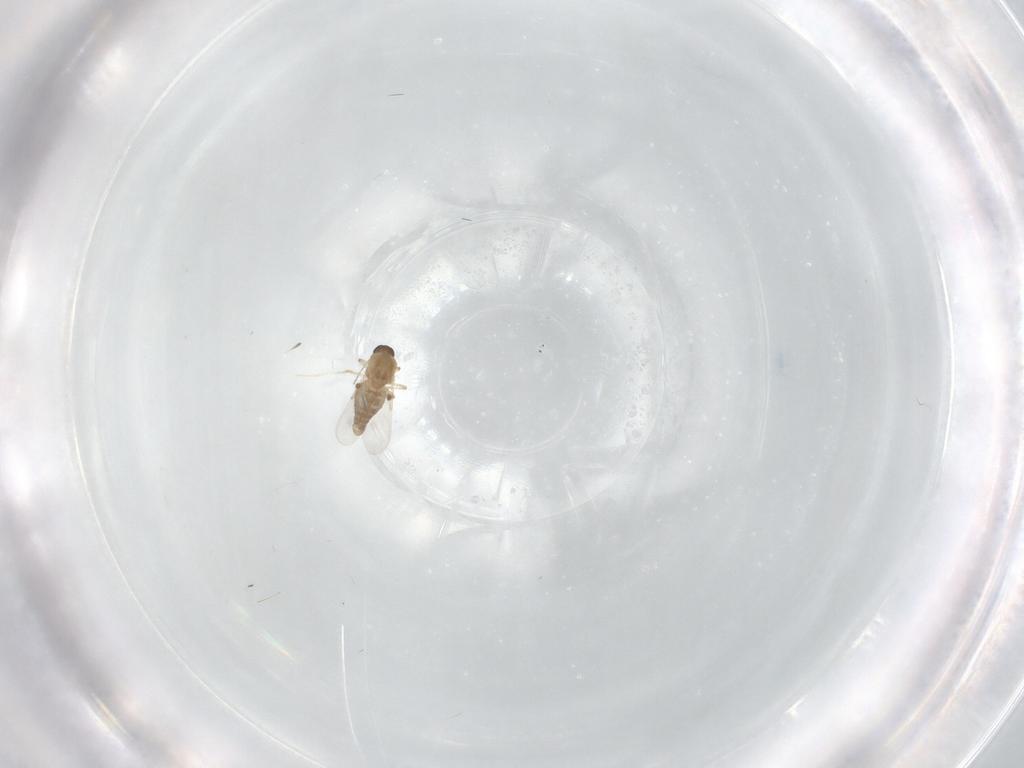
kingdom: Animalia
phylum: Arthropoda
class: Insecta
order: Diptera
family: Ceratopogonidae
